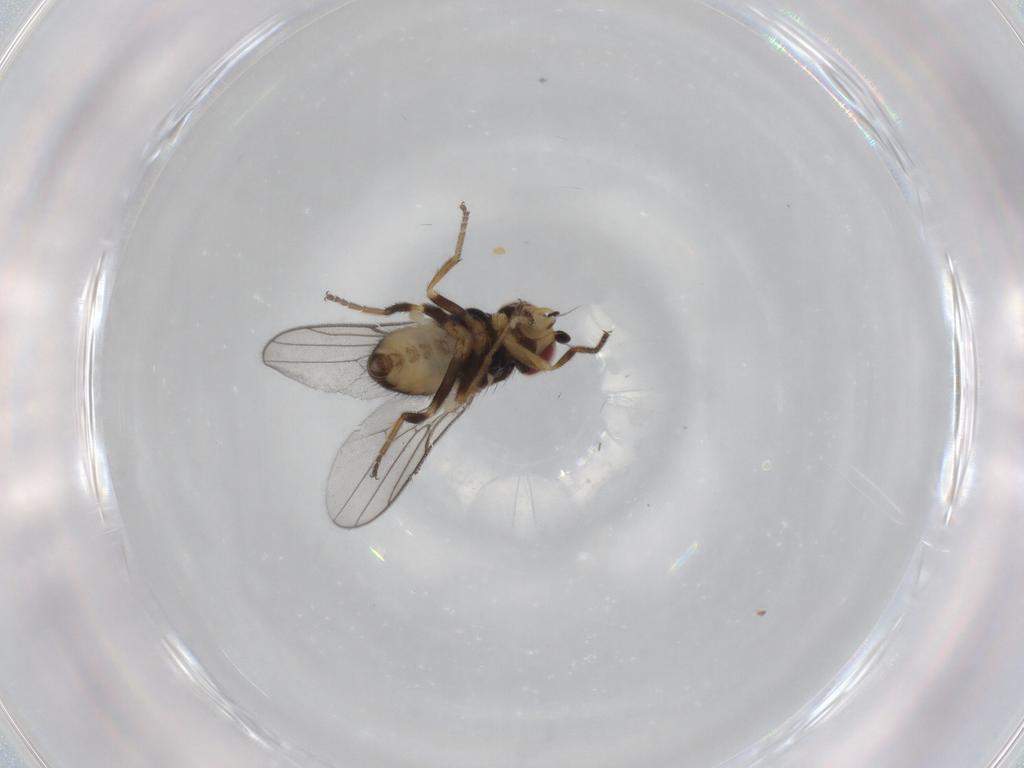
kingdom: Animalia
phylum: Arthropoda
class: Insecta
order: Diptera
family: Chloropidae
